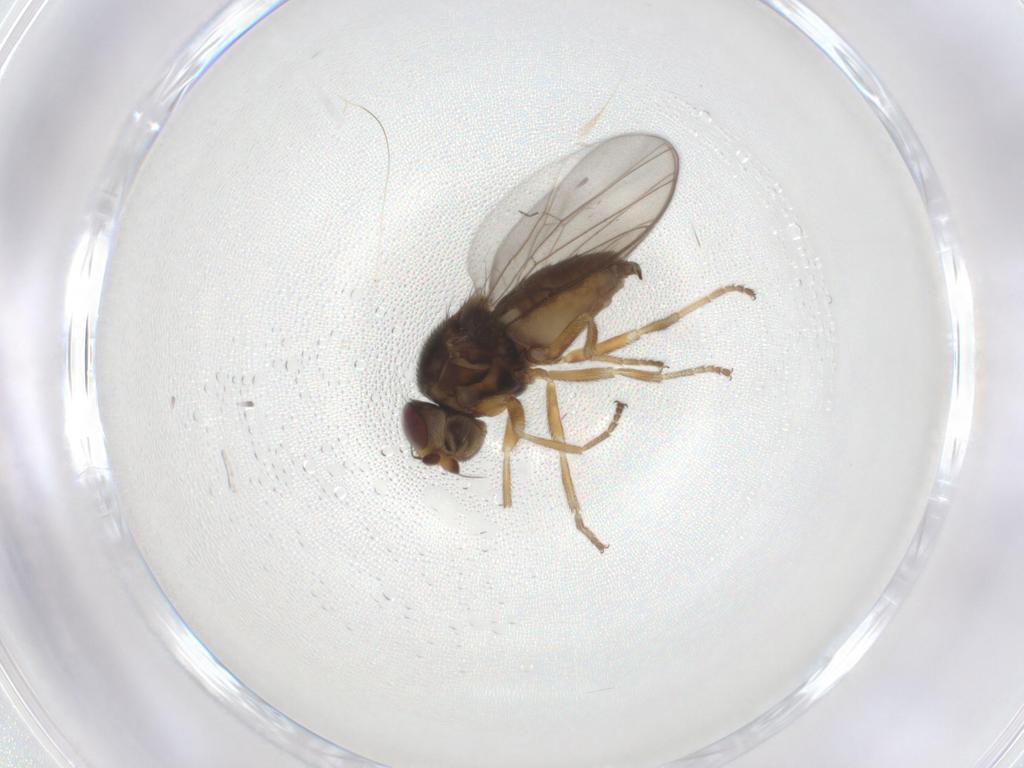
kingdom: Animalia
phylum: Arthropoda
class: Insecta
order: Diptera
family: Chloropidae
